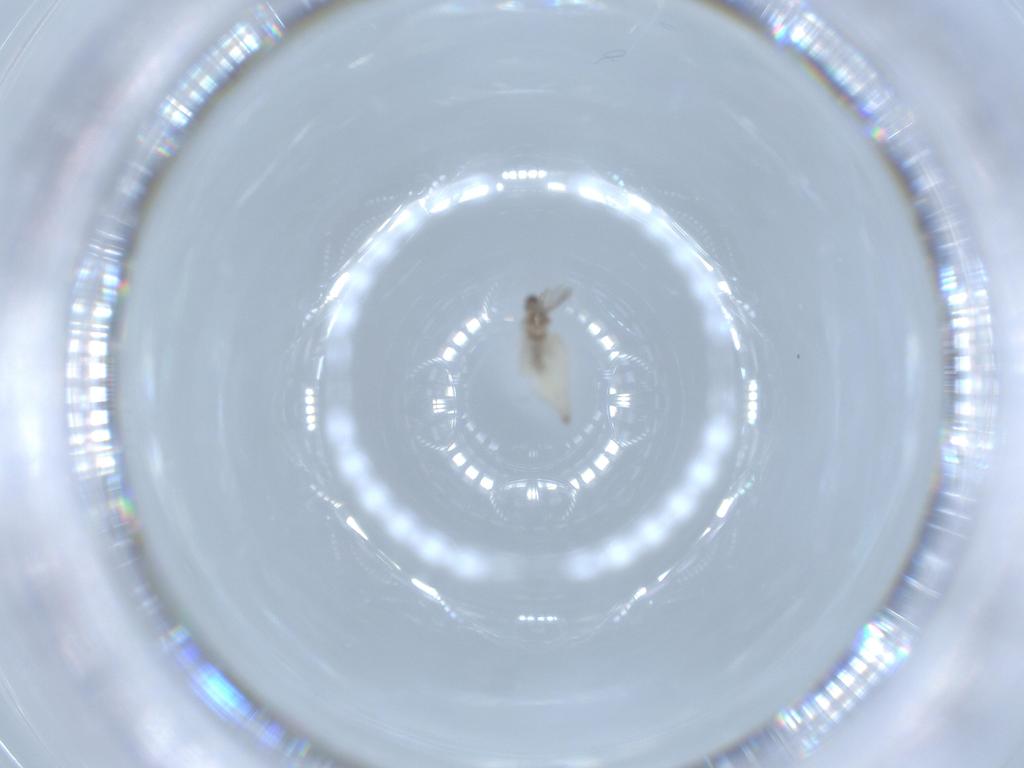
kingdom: Animalia
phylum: Arthropoda
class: Insecta
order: Diptera
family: Cecidomyiidae
